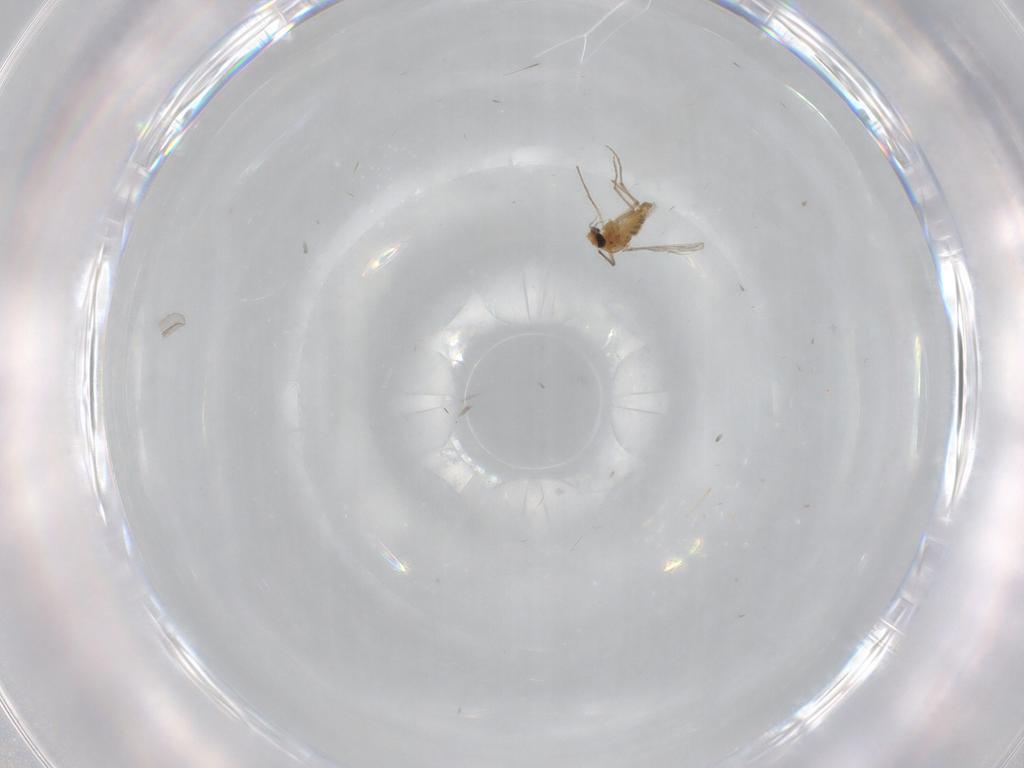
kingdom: Animalia
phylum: Arthropoda
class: Insecta
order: Diptera
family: Chironomidae
